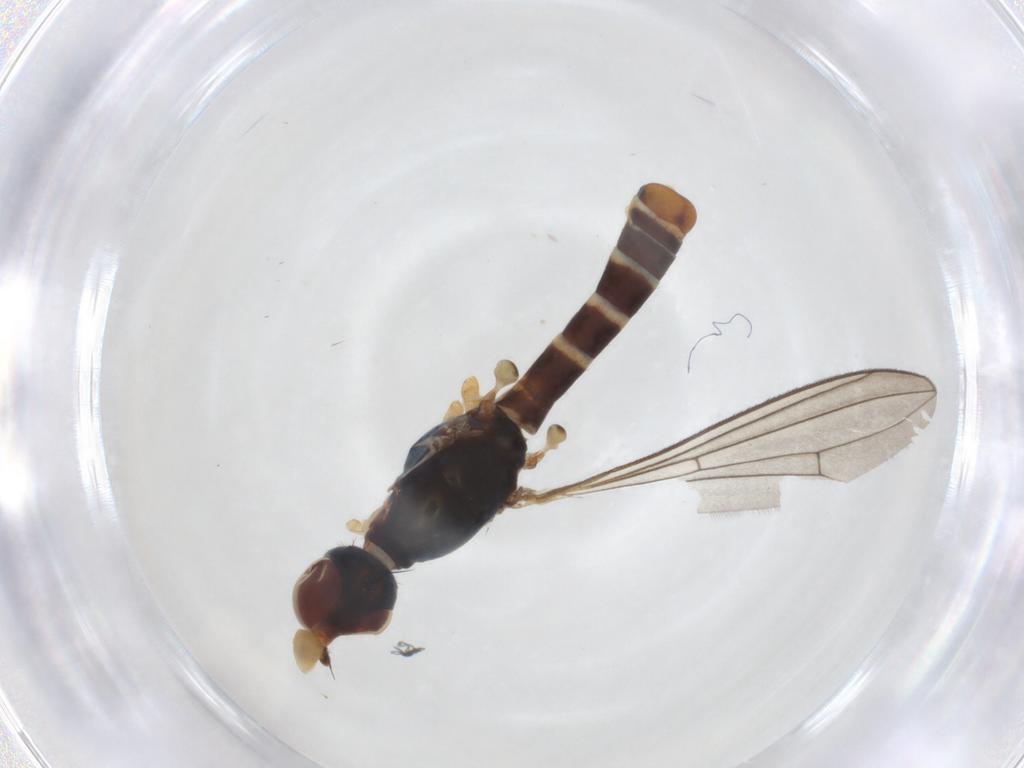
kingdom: Animalia
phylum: Arthropoda
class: Insecta
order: Diptera
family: Micropezidae
